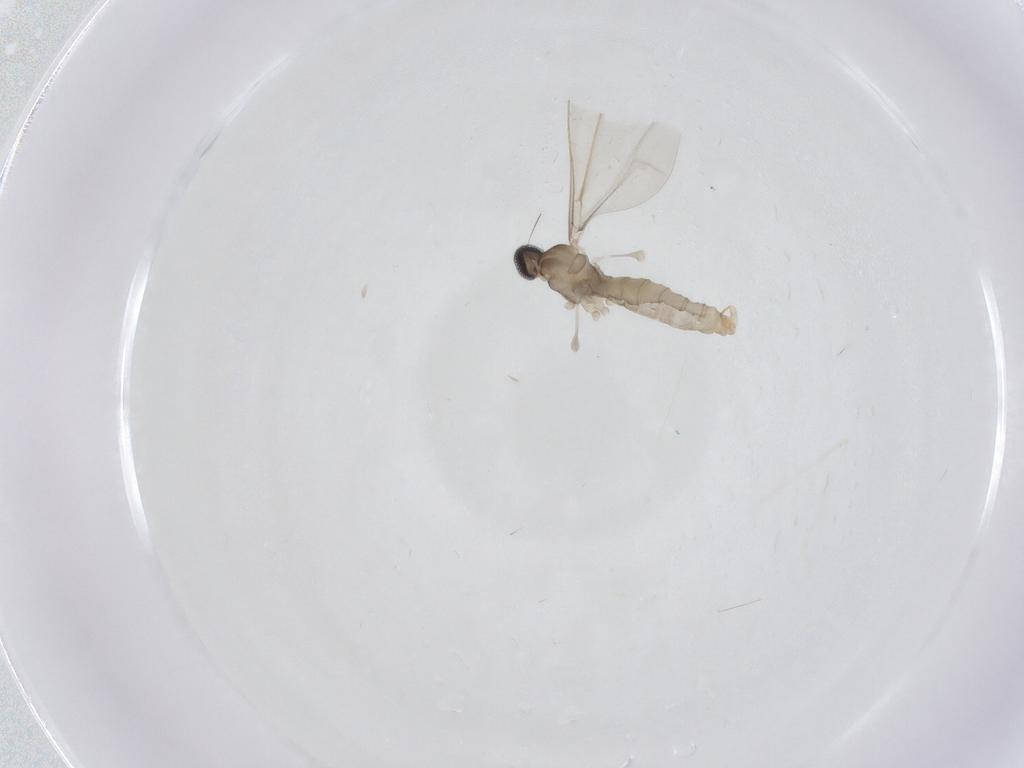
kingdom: Animalia
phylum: Arthropoda
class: Insecta
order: Diptera
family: Cecidomyiidae
